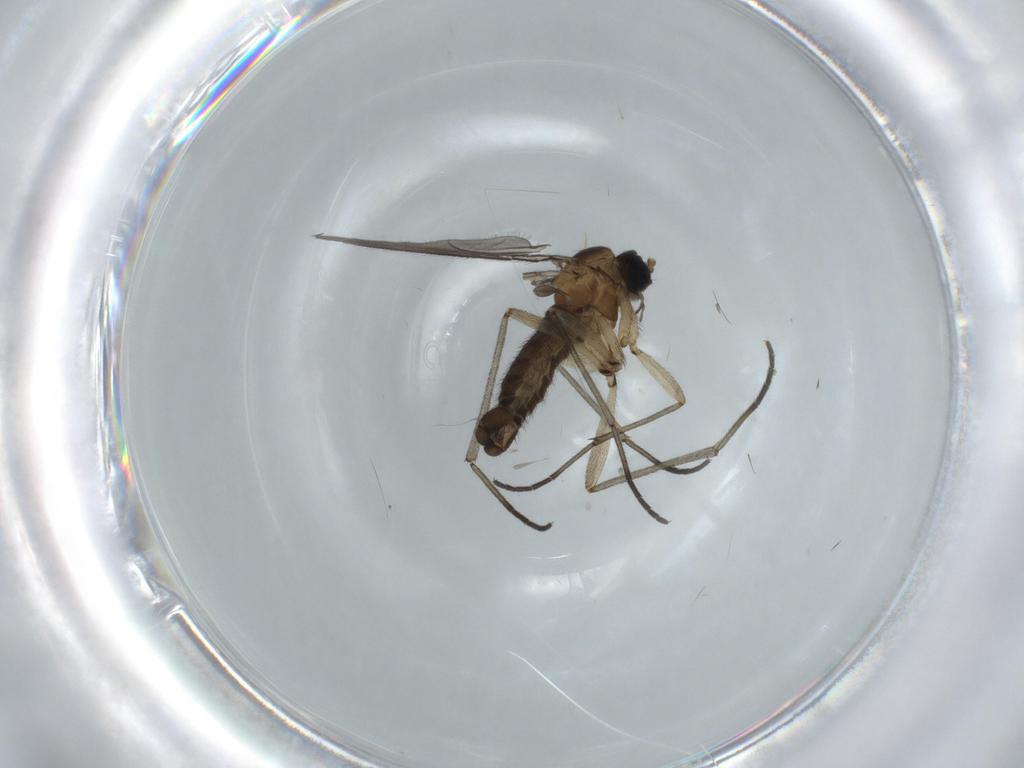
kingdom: Animalia
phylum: Arthropoda
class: Insecta
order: Diptera
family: Sciaridae
